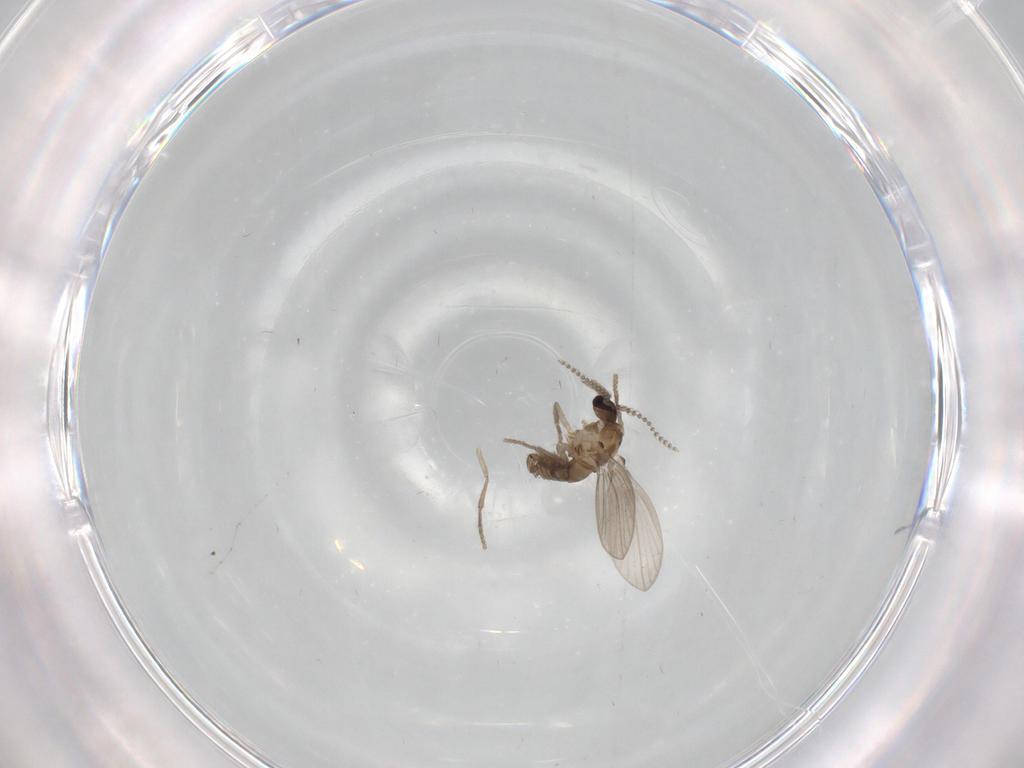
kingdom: Animalia
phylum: Arthropoda
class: Insecta
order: Diptera
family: Psychodidae
